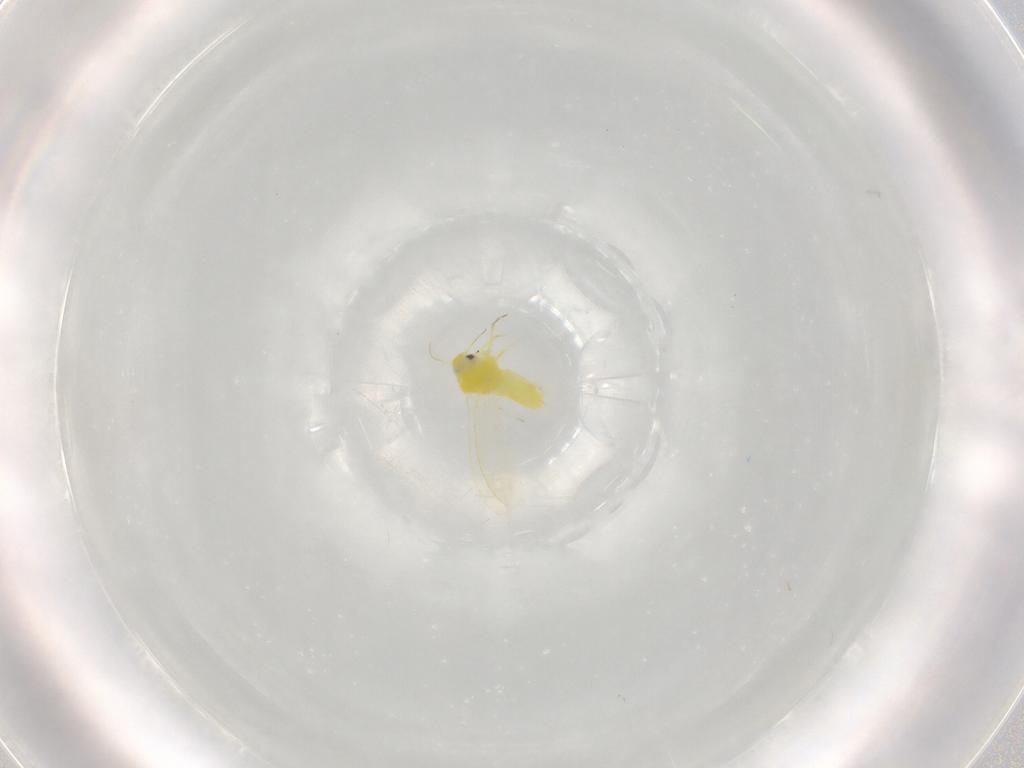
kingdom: Animalia
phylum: Arthropoda
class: Insecta
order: Hemiptera
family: Aleyrodidae
